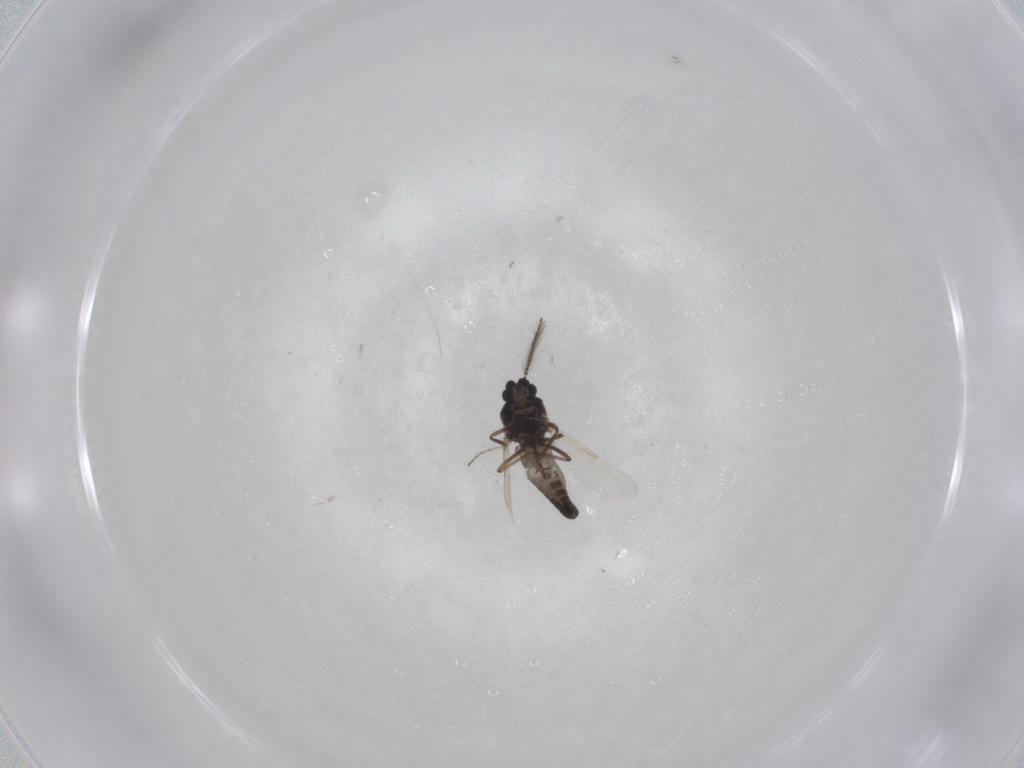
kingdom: Animalia
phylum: Arthropoda
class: Insecta
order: Diptera
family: Ceratopogonidae
